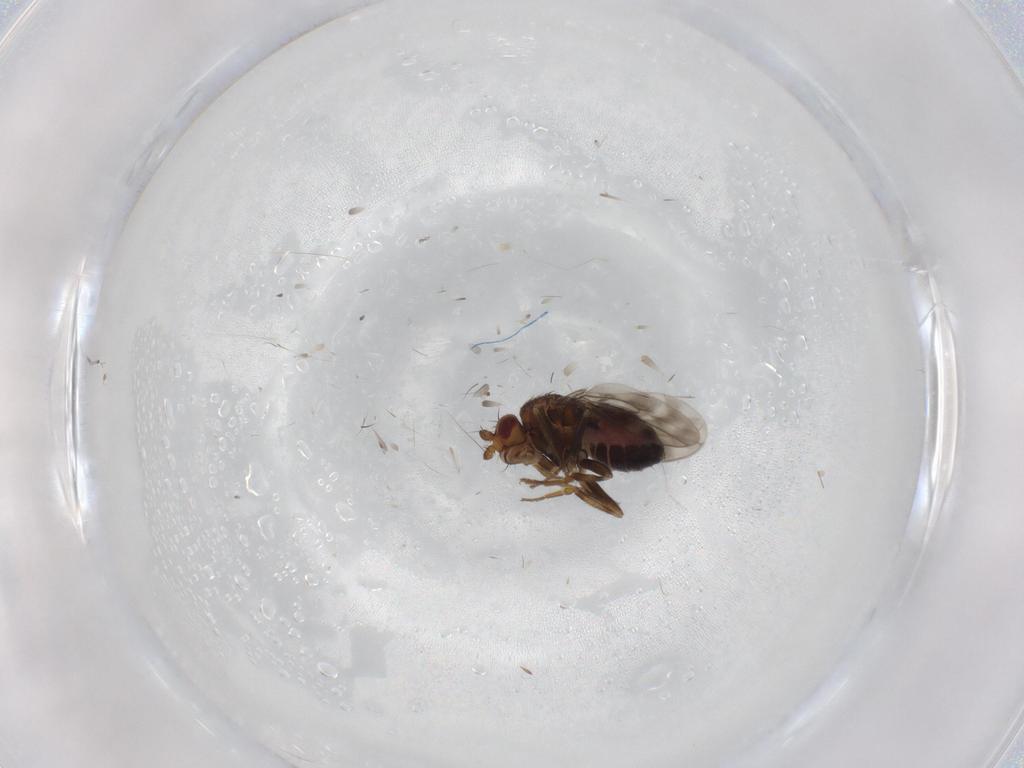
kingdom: Animalia
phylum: Arthropoda
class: Insecta
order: Diptera
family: Sphaeroceridae
